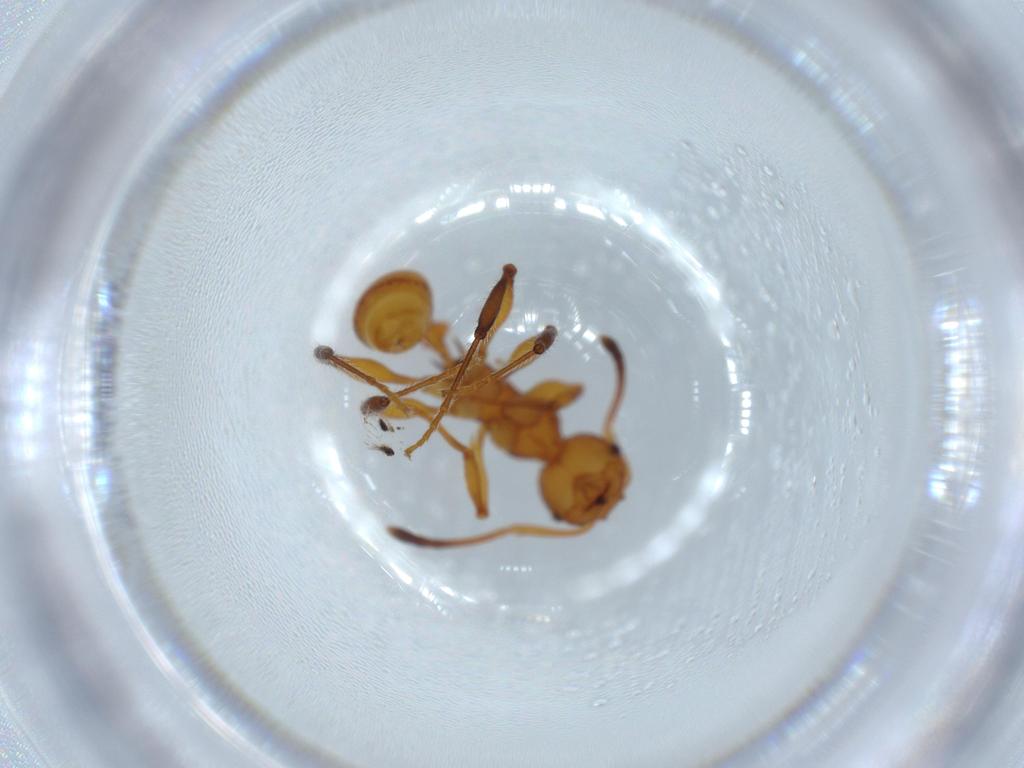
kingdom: Animalia
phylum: Arthropoda
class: Insecta
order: Hymenoptera
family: Formicidae
